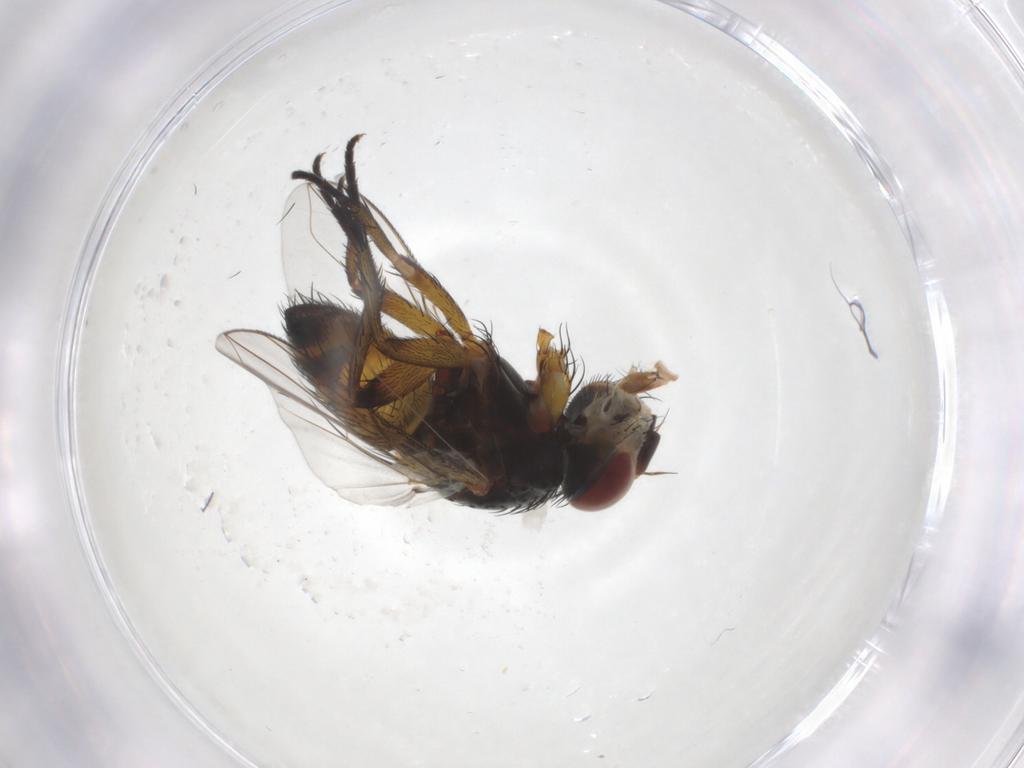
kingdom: Animalia
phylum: Arthropoda
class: Insecta
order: Diptera
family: Tachinidae
